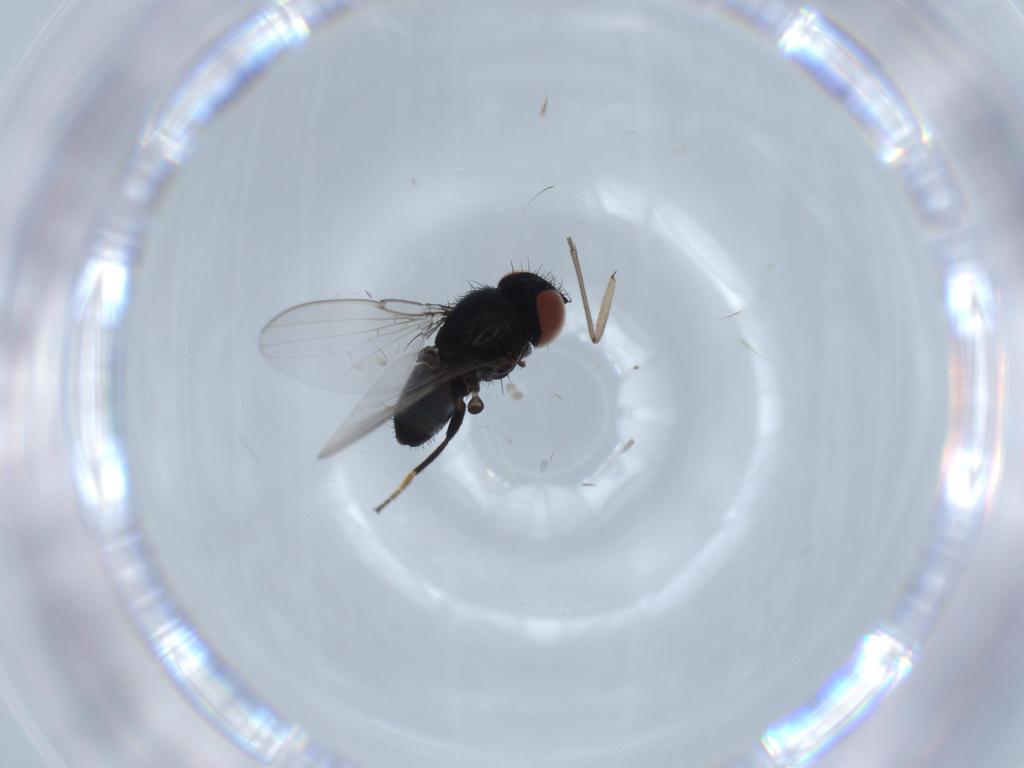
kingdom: Animalia
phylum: Arthropoda
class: Insecta
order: Diptera
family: Milichiidae
